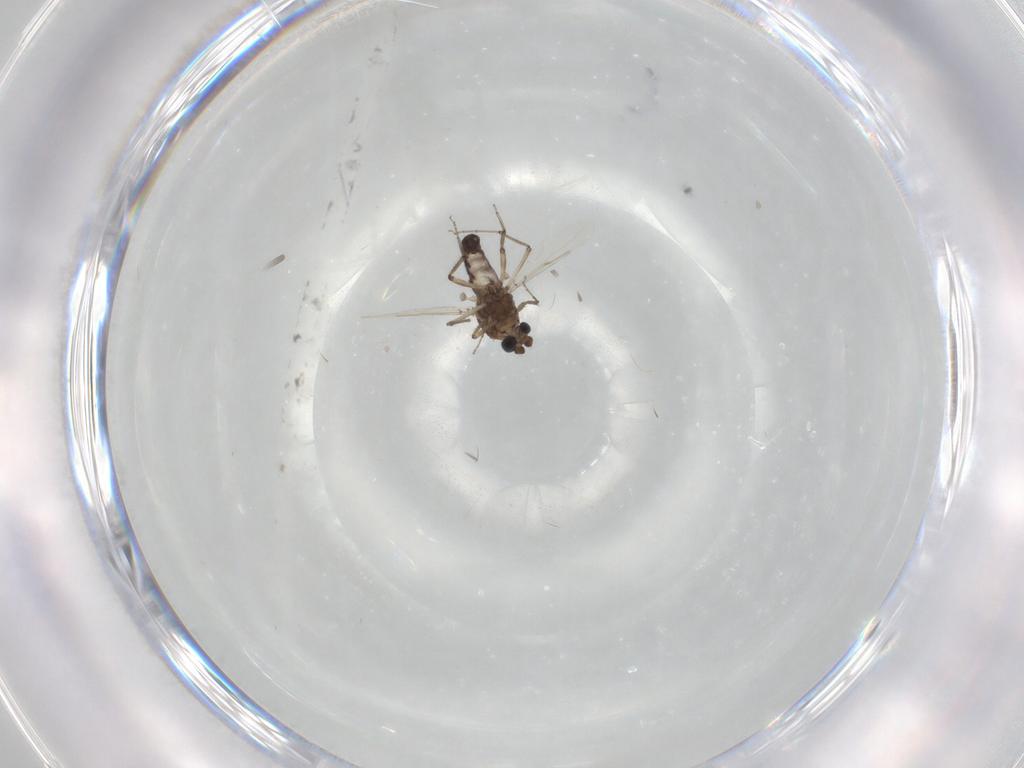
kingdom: Animalia
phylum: Arthropoda
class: Insecta
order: Diptera
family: Ceratopogonidae
